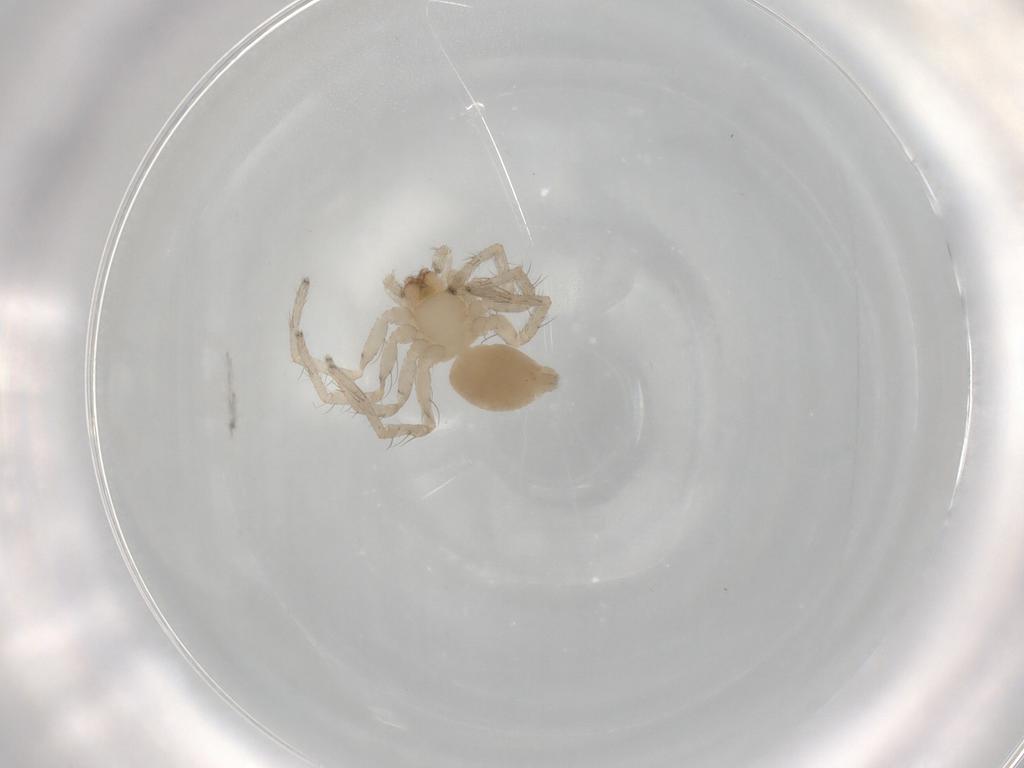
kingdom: Animalia
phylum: Arthropoda
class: Arachnida
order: Araneae
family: Anyphaenidae
